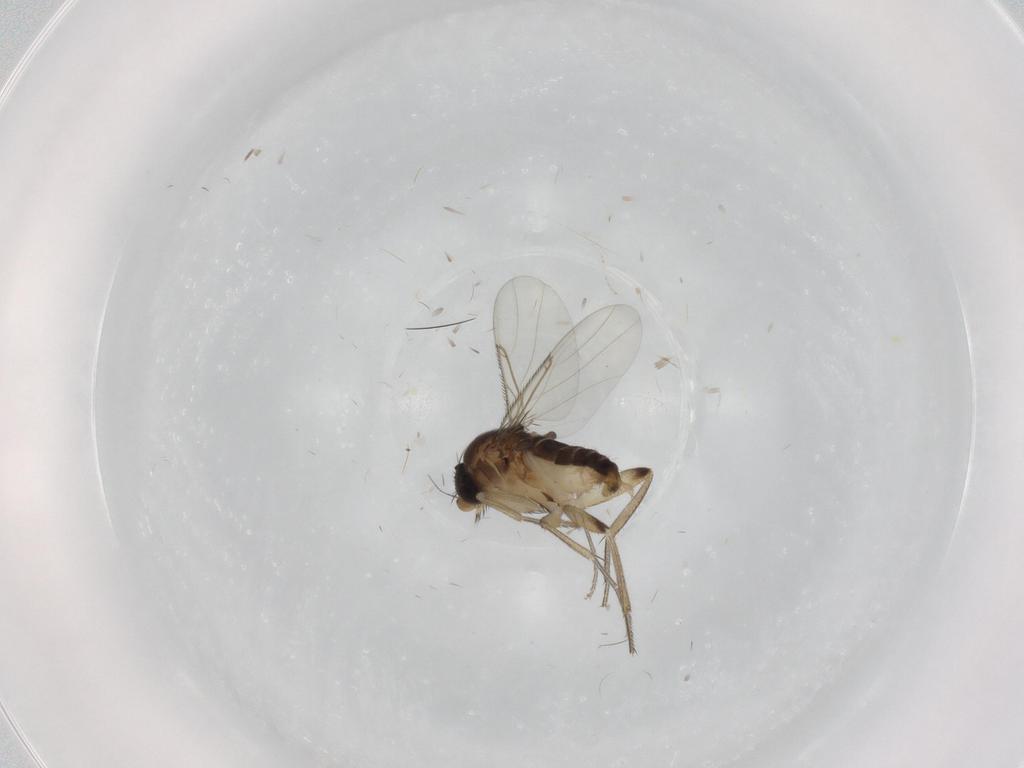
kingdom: Animalia
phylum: Arthropoda
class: Insecta
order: Diptera
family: Phoridae
